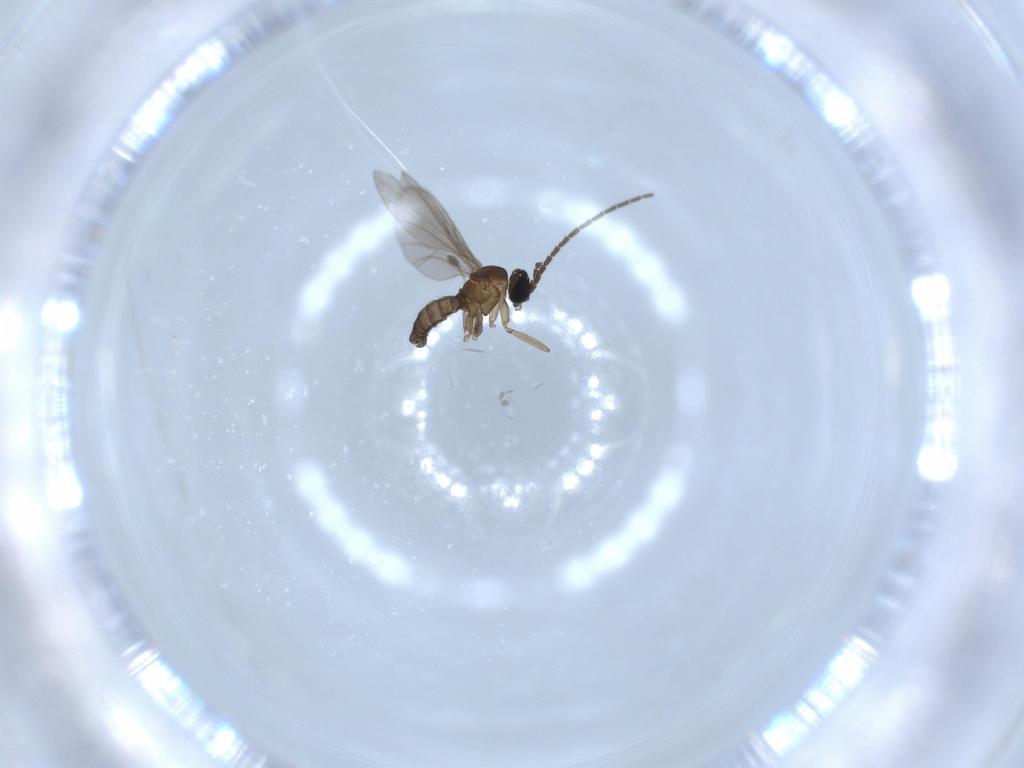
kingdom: Animalia
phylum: Arthropoda
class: Insecta
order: Diptera
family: Sciaridae
